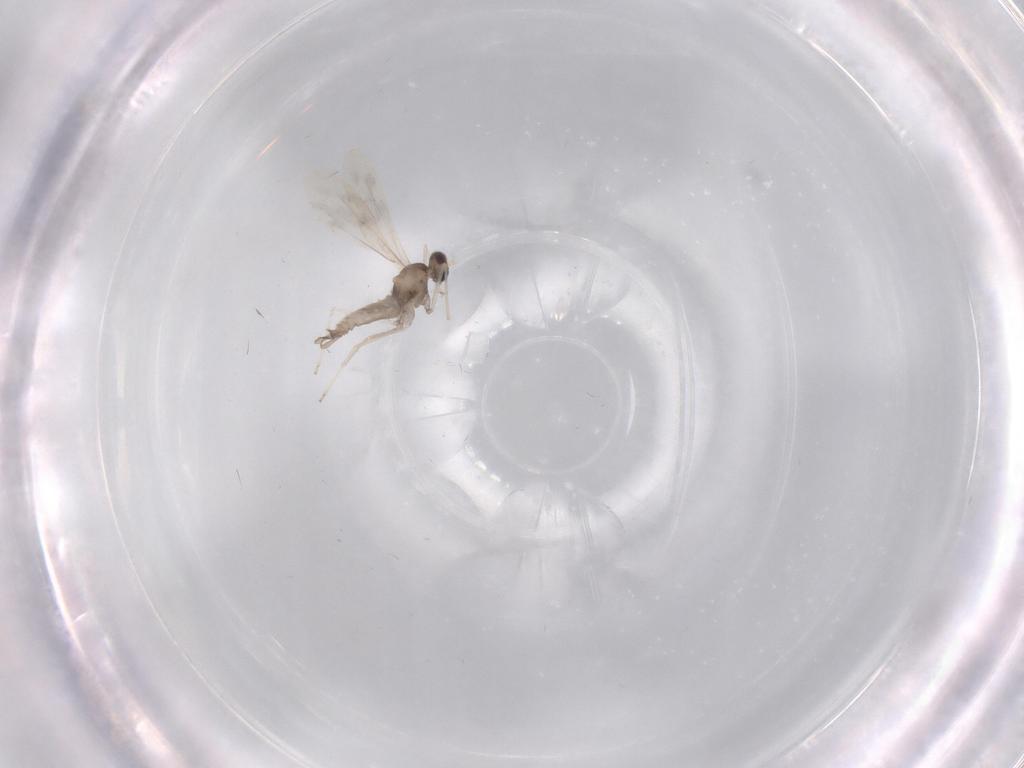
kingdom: Animalia
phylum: Arthropoda
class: Insecta
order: Diptera
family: Cecidomyiidae
